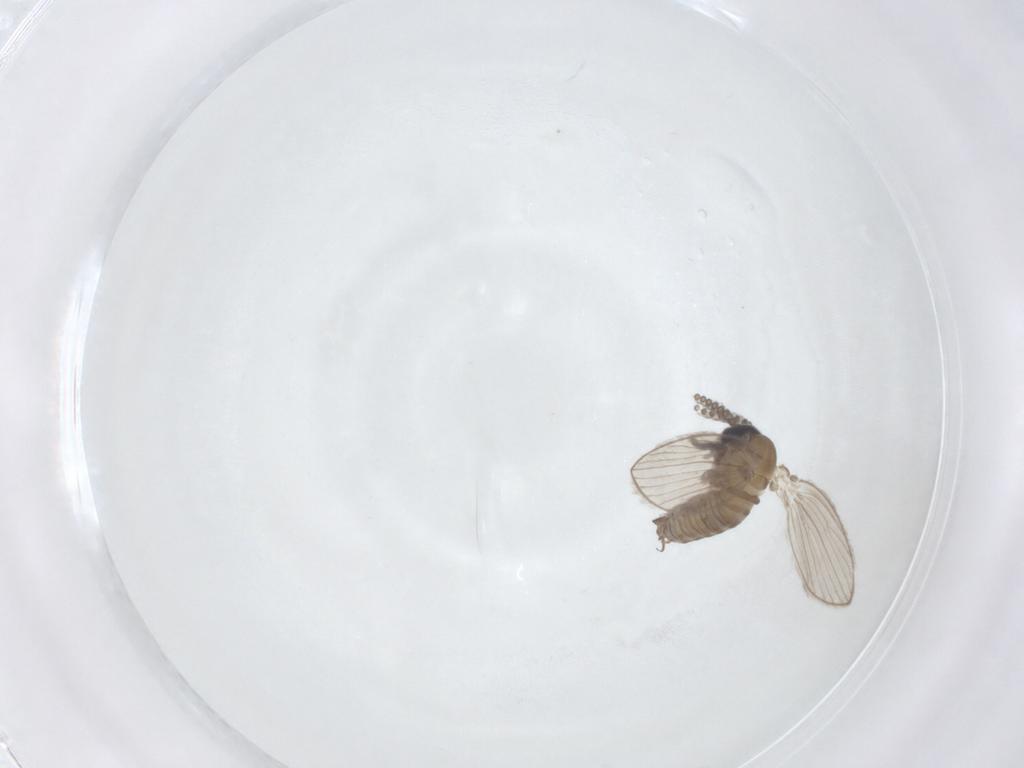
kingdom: Animalia
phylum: Arthropoda
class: Insecta
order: Diptera
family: Psychodidae
